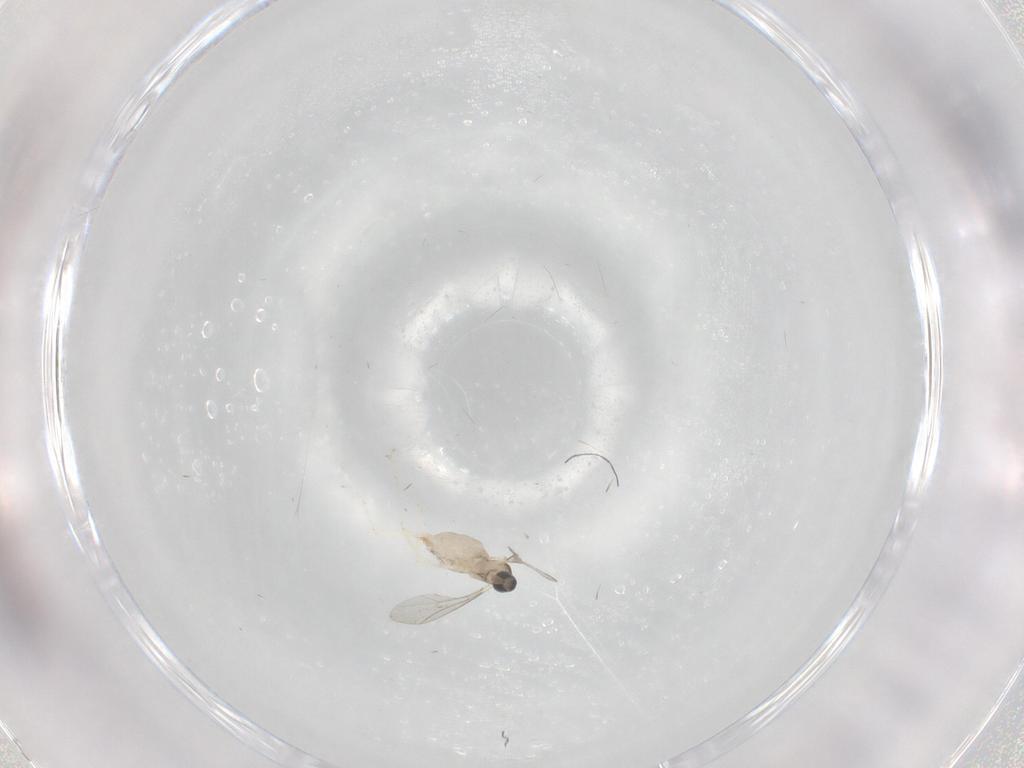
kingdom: Animalia
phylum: Arthropoda
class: Insecta
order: Diptera
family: Cecidomyiidae
